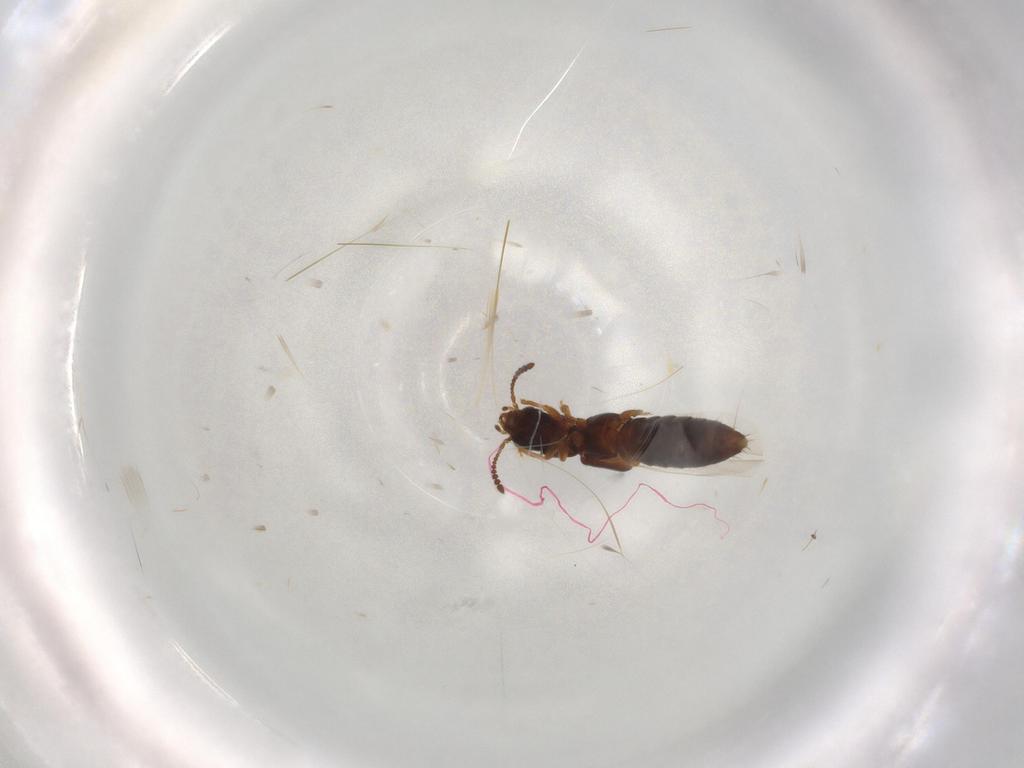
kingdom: Animalia
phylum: Arthropoda
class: Insecta
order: Coleoptera
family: Staphylinidae
